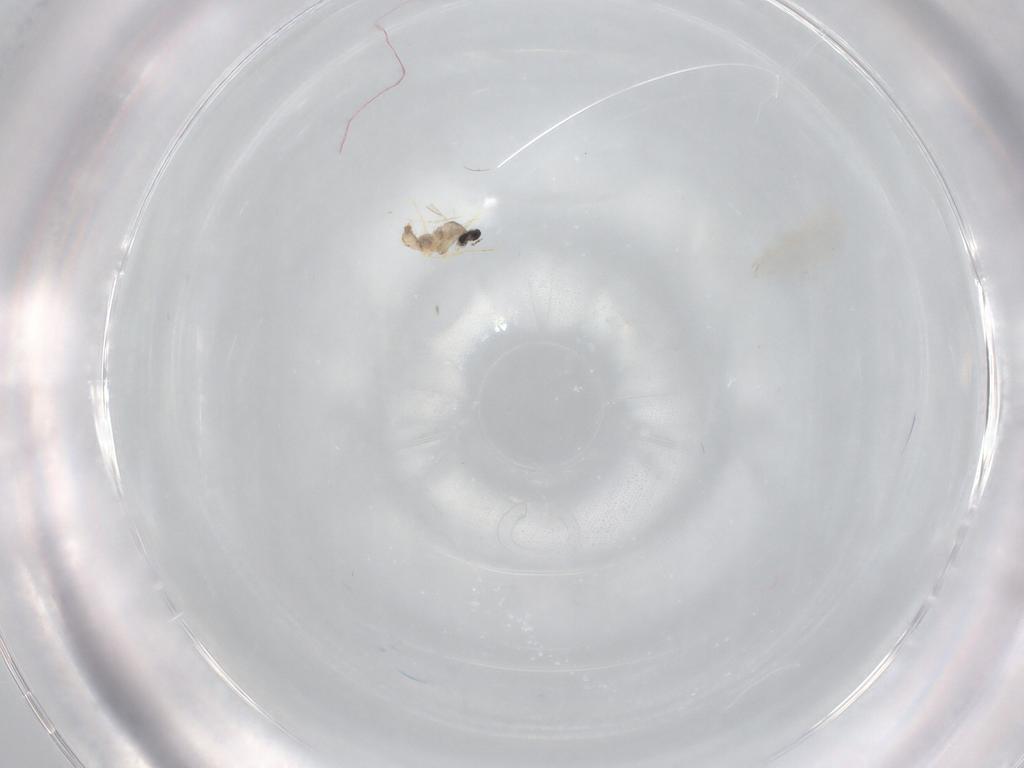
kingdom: Animalia
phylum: Arthropoda
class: Insecta
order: Diptera
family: Cecidomyiidae
